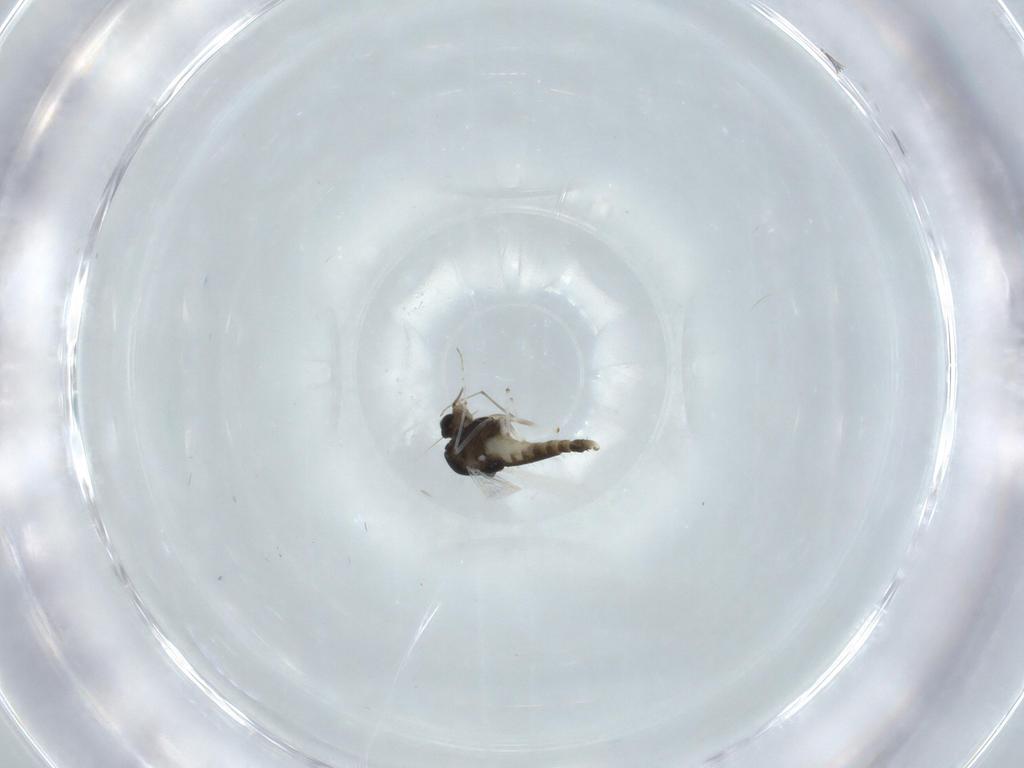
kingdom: Animalia
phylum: Arthropoda
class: Insecta
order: Diptera
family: Chironomidae
